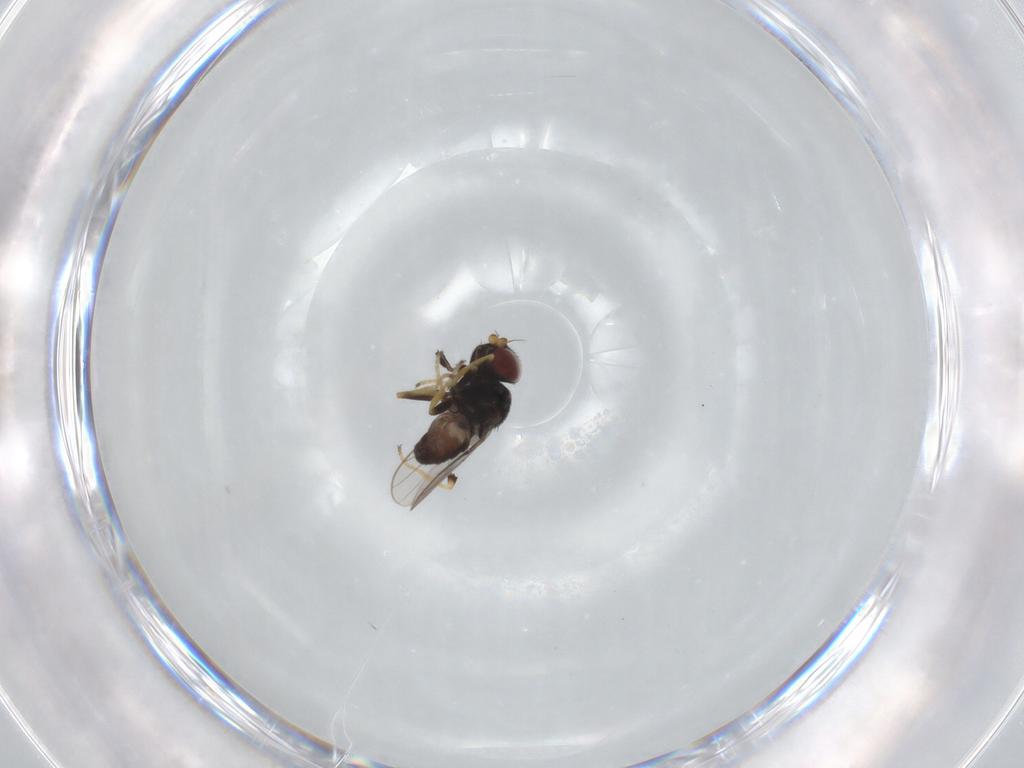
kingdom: Animalia
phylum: Arthropoda
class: Insecta
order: Diptera
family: Chloropidae
